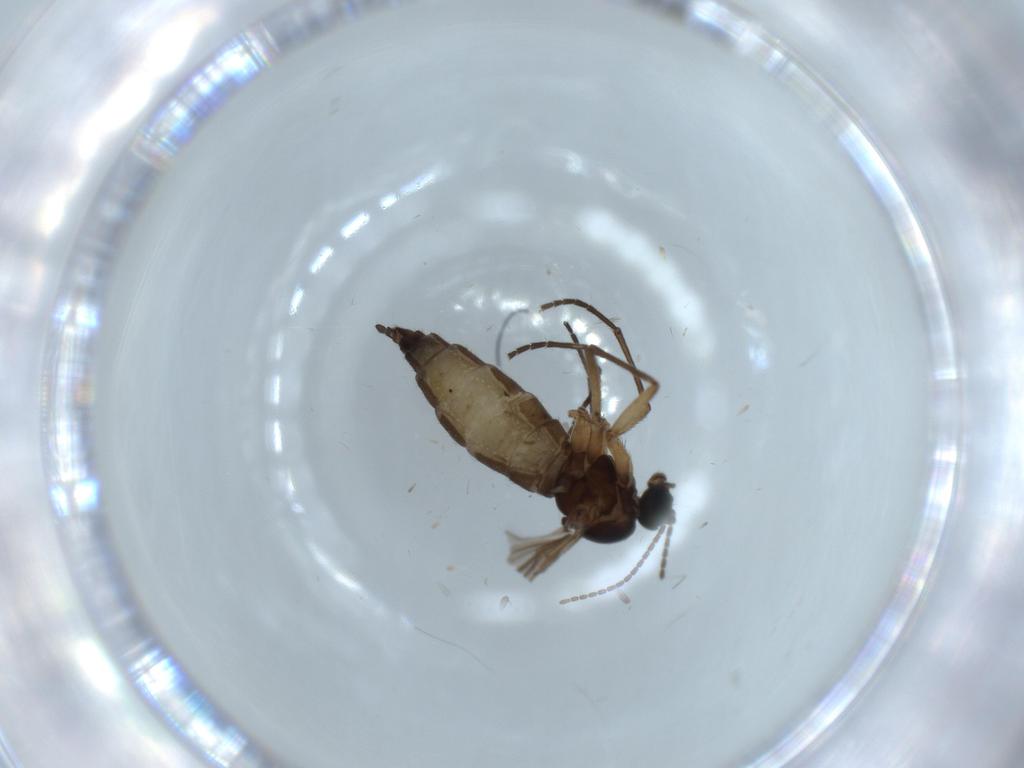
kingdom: Animalia
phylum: Arthropoda
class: Insecta
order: Diptera
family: Sciaridae
